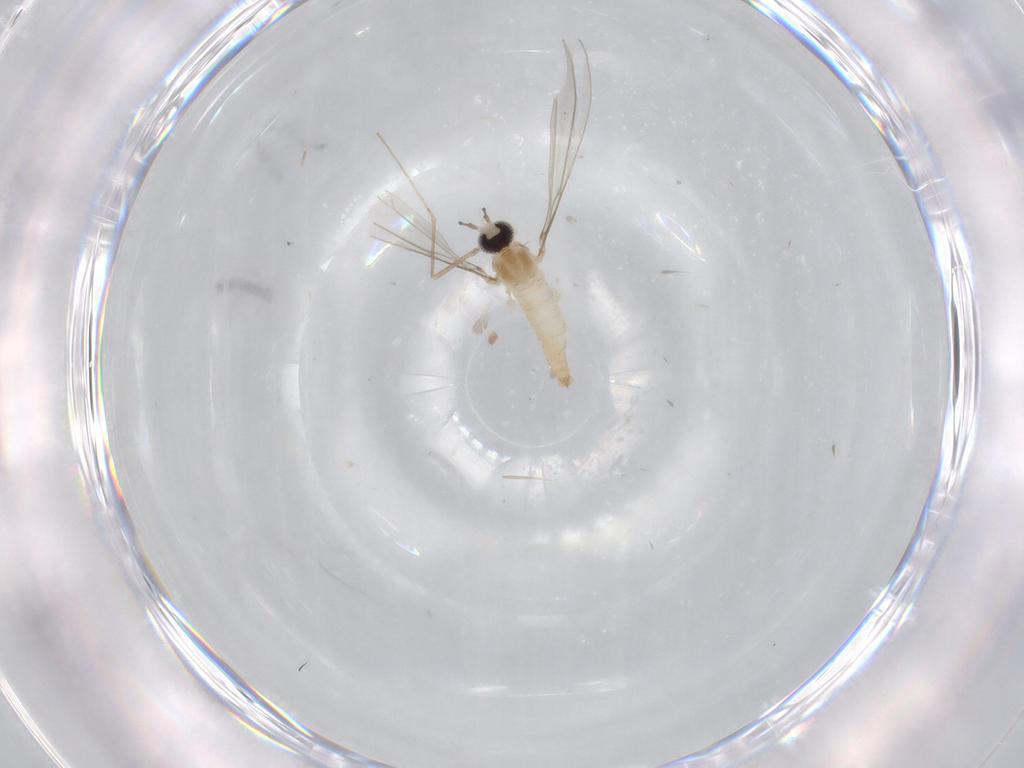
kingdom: Animalia
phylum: Arthropoda
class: Insecta
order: Diptera
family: Cecidomyiidae
